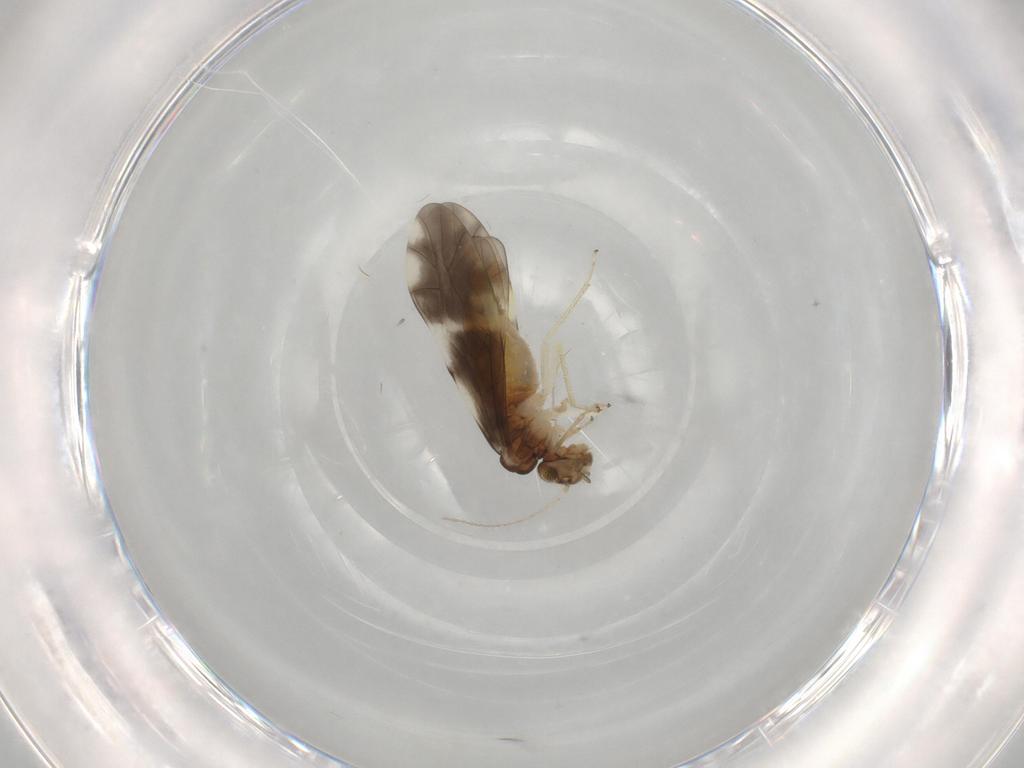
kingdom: Animalia
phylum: Arthropoda
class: Insecta
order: Psocodea
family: Peripsocidae
